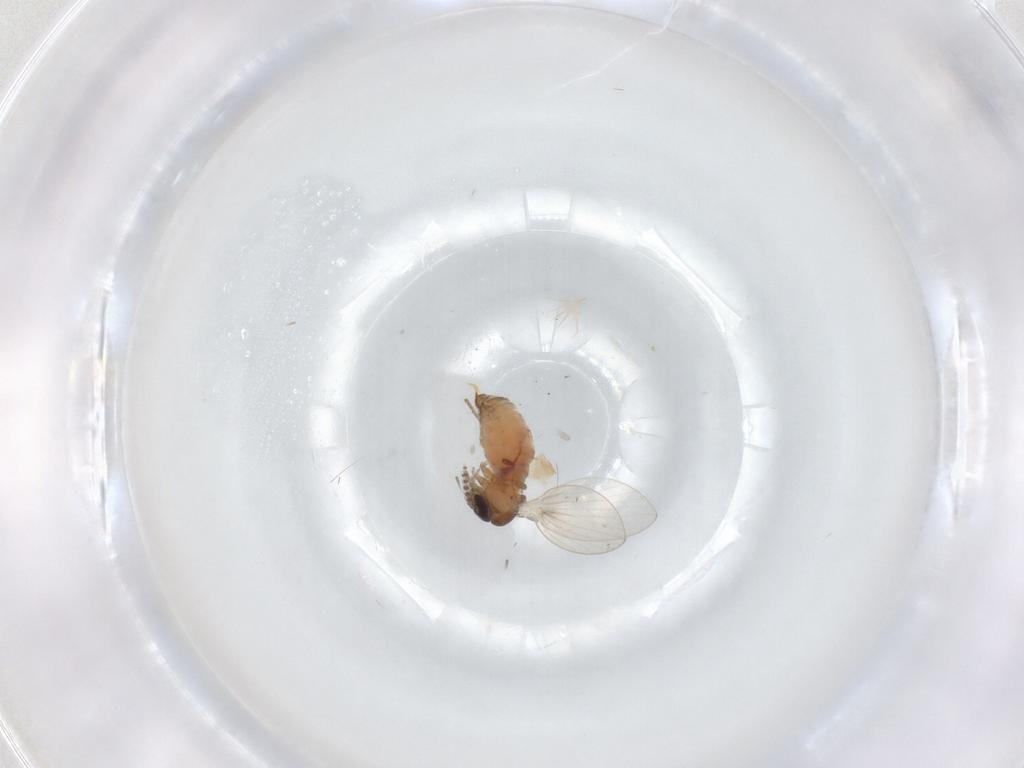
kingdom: Animalia
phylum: Arthropoda
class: Insecta
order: Diptera
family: Psychodidae
